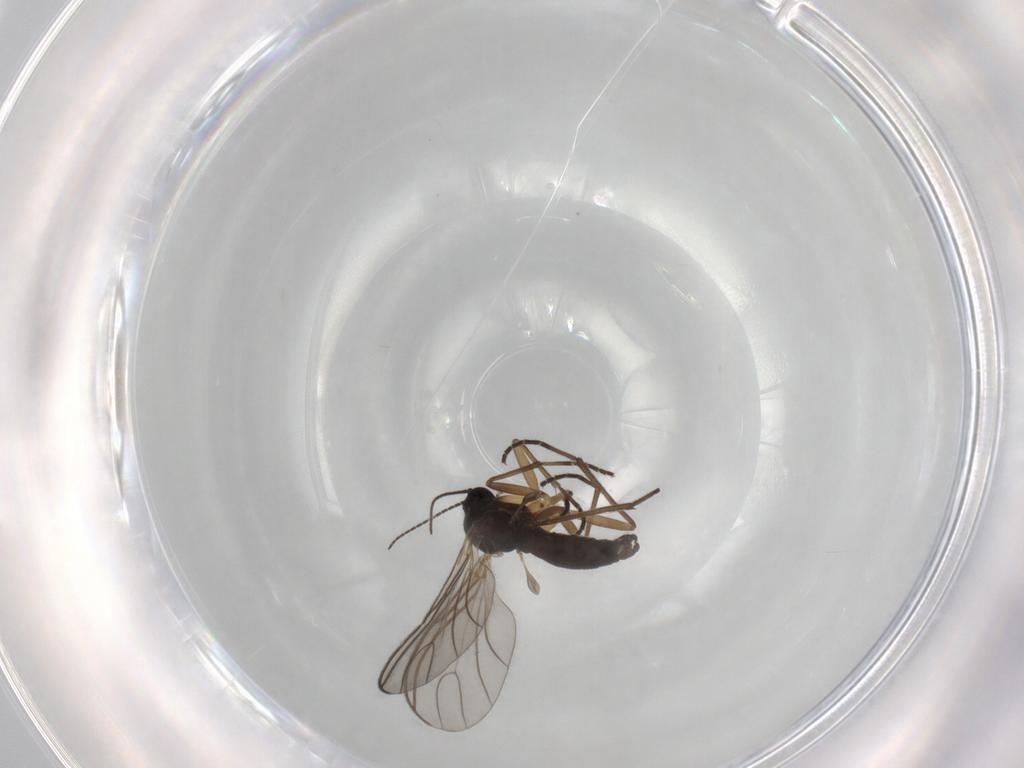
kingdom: Animalia
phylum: Arthropoda
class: Insecta
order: Diptera
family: Sciaridae
